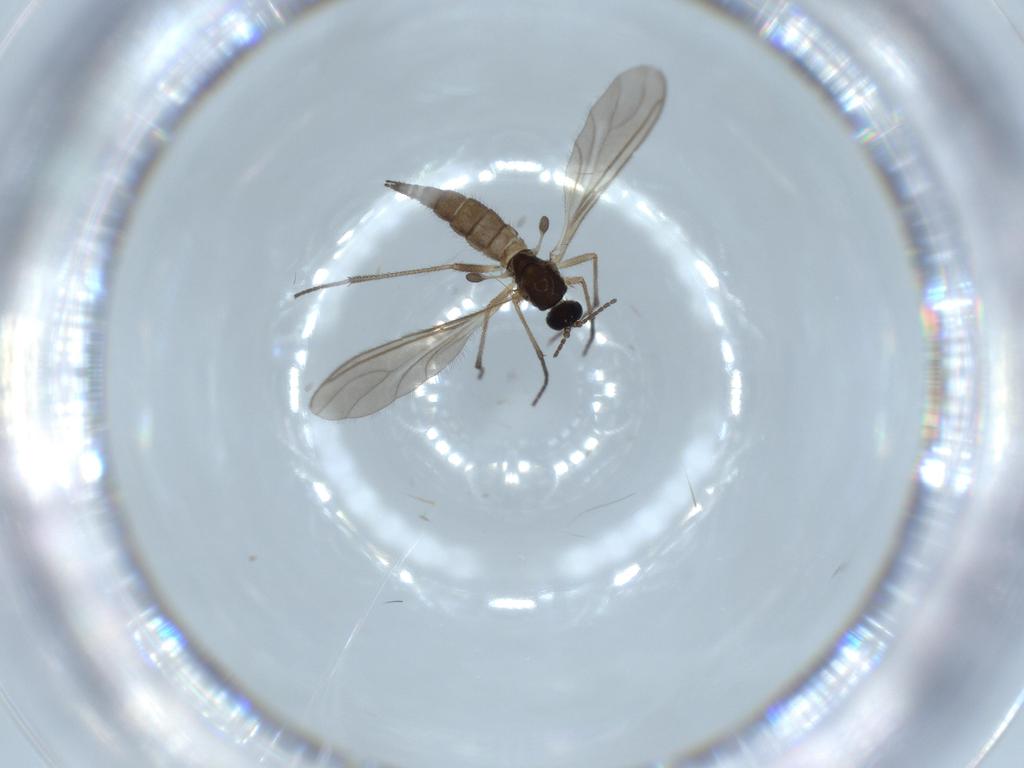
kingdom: Animalia
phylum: Arthropoda
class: Insecta
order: Diptera
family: Sciaridae
